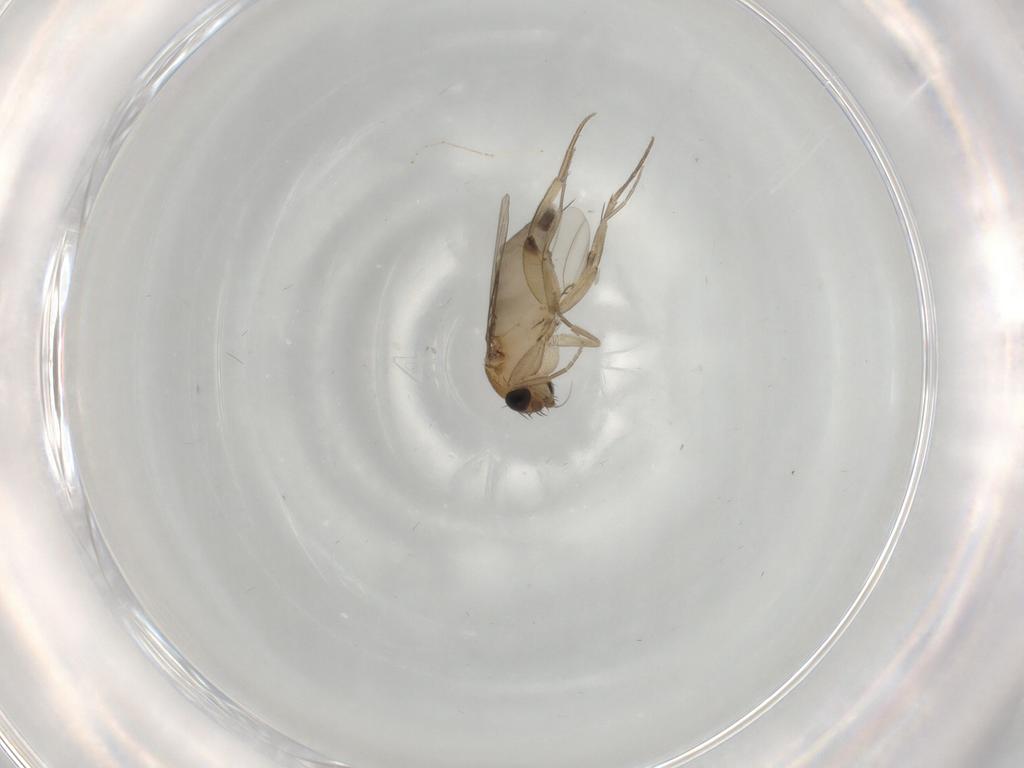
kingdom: Animalia
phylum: Arthropoda
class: Insecta
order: Diptera
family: Phoridae
